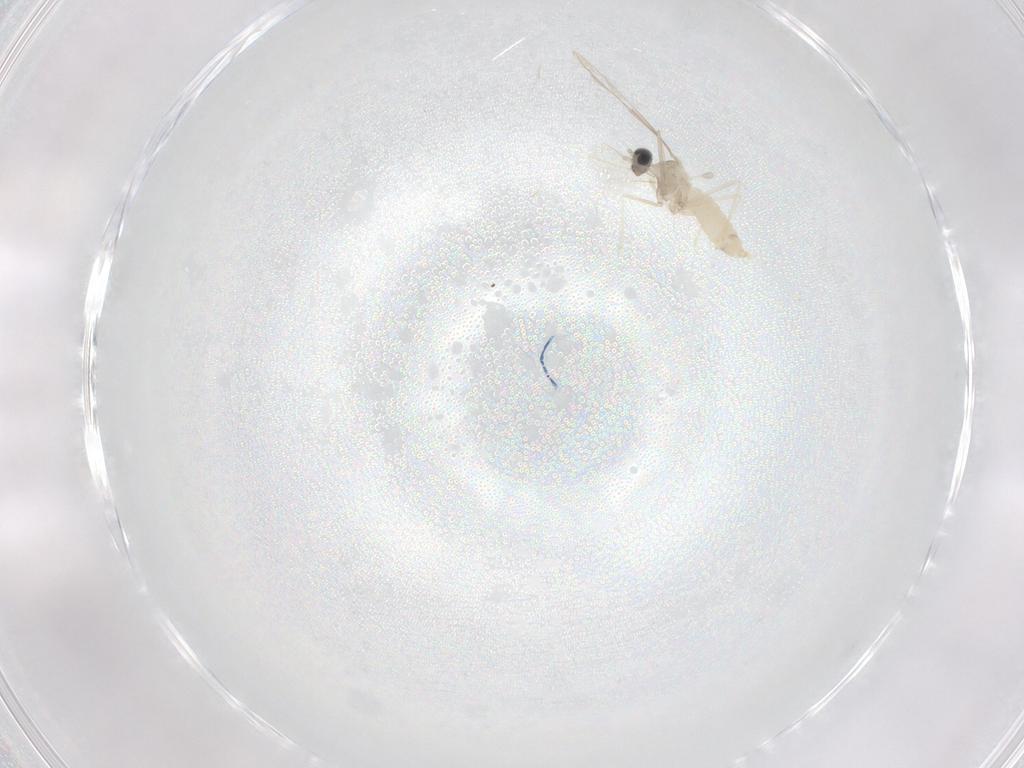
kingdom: Animalia
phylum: Arthropoda
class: Insecta
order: Diptera
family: Cecidomyiidae
